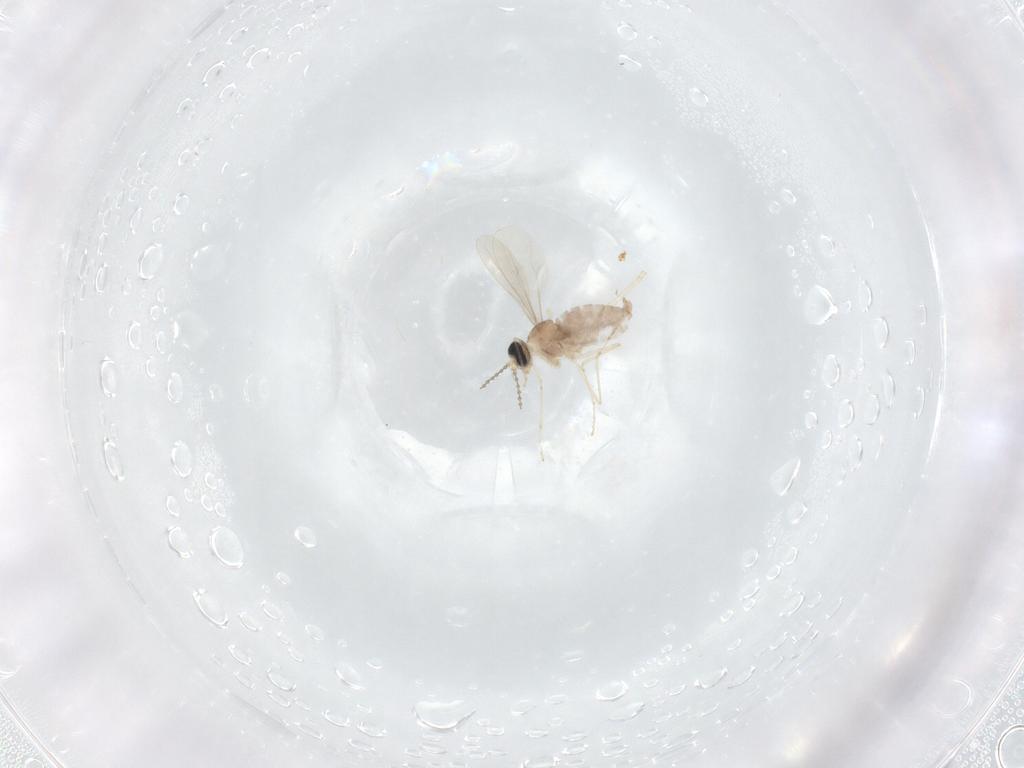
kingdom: Animalia
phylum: Arthropoda
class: Insecta
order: Diptera
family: Cecidomyiidae
